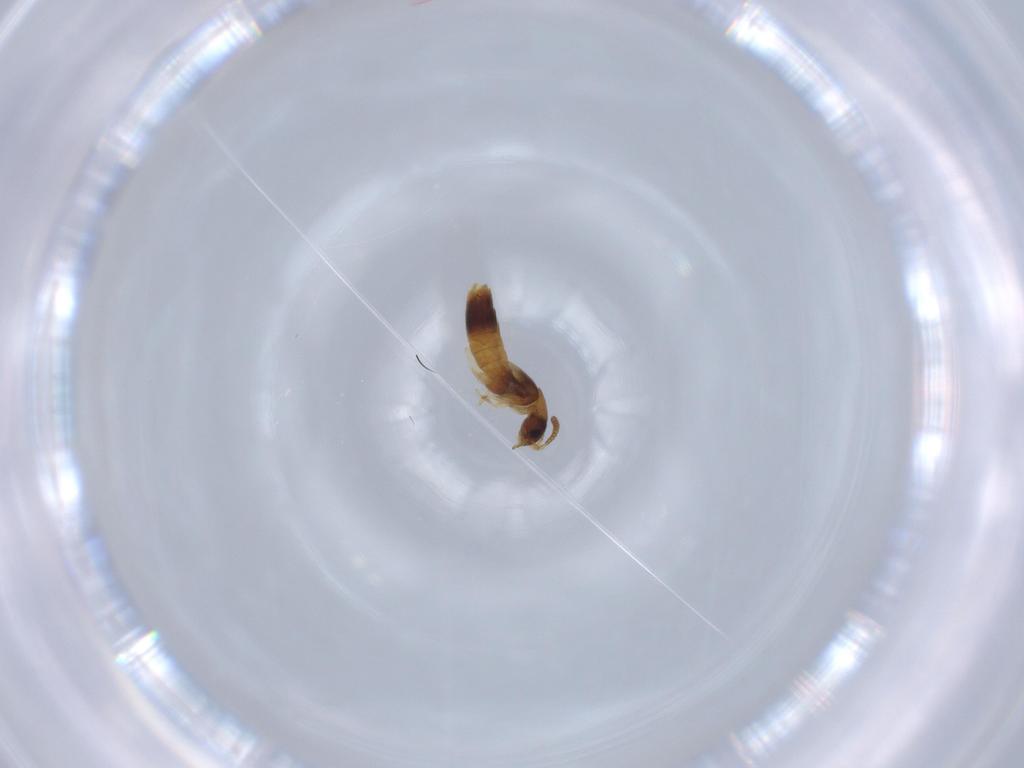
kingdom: Animalia
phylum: Arthropoda
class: Insecta
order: Coleoptera
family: Staphylinidae
